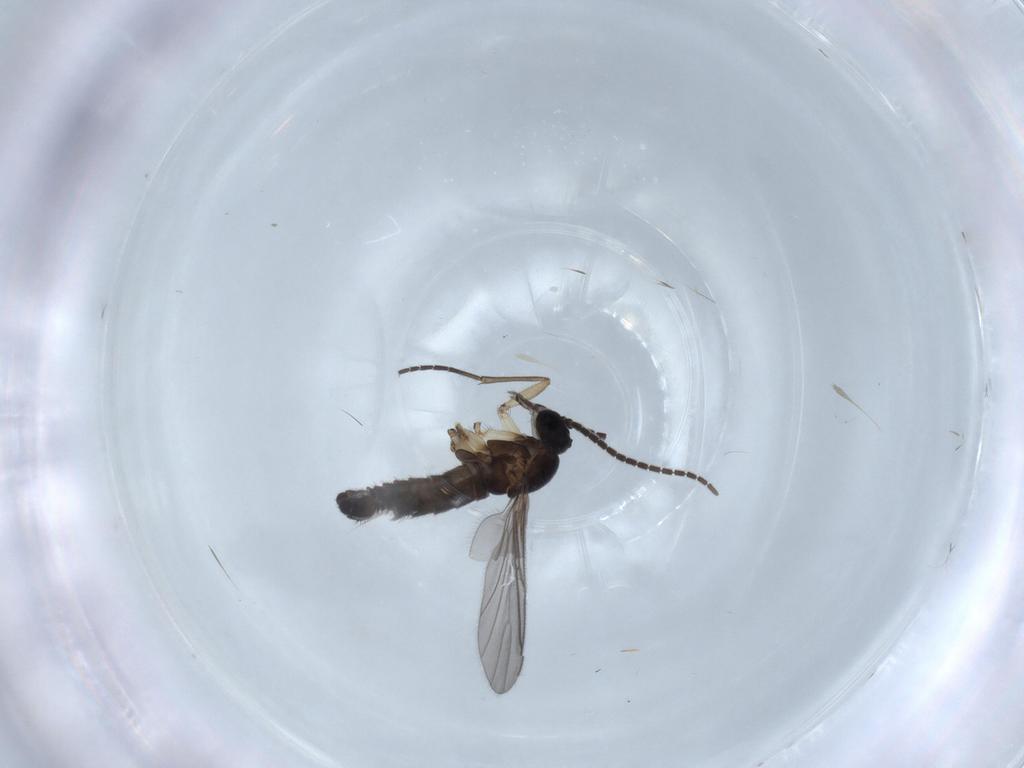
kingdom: Animalia
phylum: Arthropoda
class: Insecta
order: Diptera
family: Sciaridae
